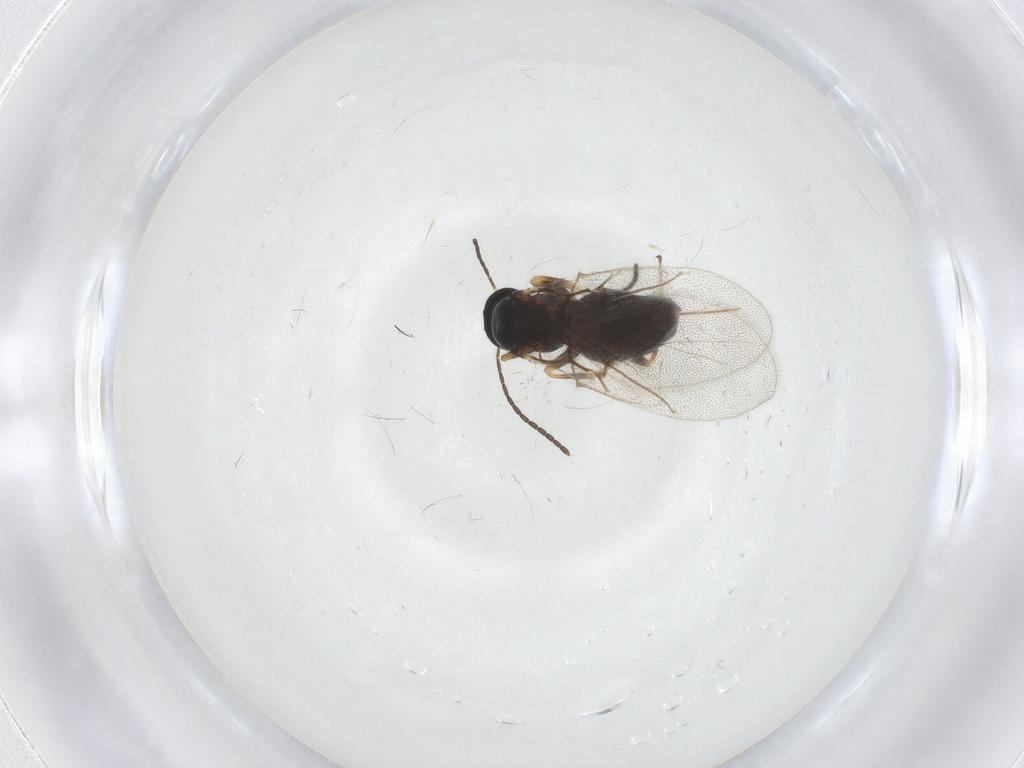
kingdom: Animalia
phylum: Arthropoda
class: Insecta
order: Hymenoptera
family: Cynipidae
